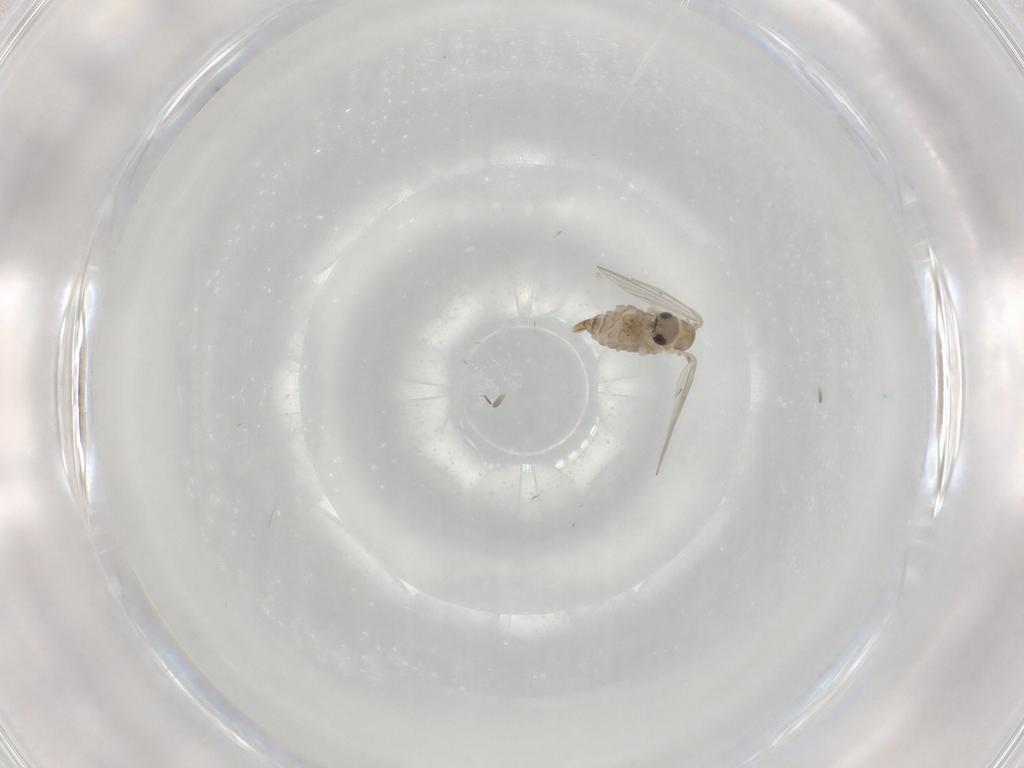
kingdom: Animalia
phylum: Arthropoda
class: Insecta
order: Diptera
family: Psychodidae
